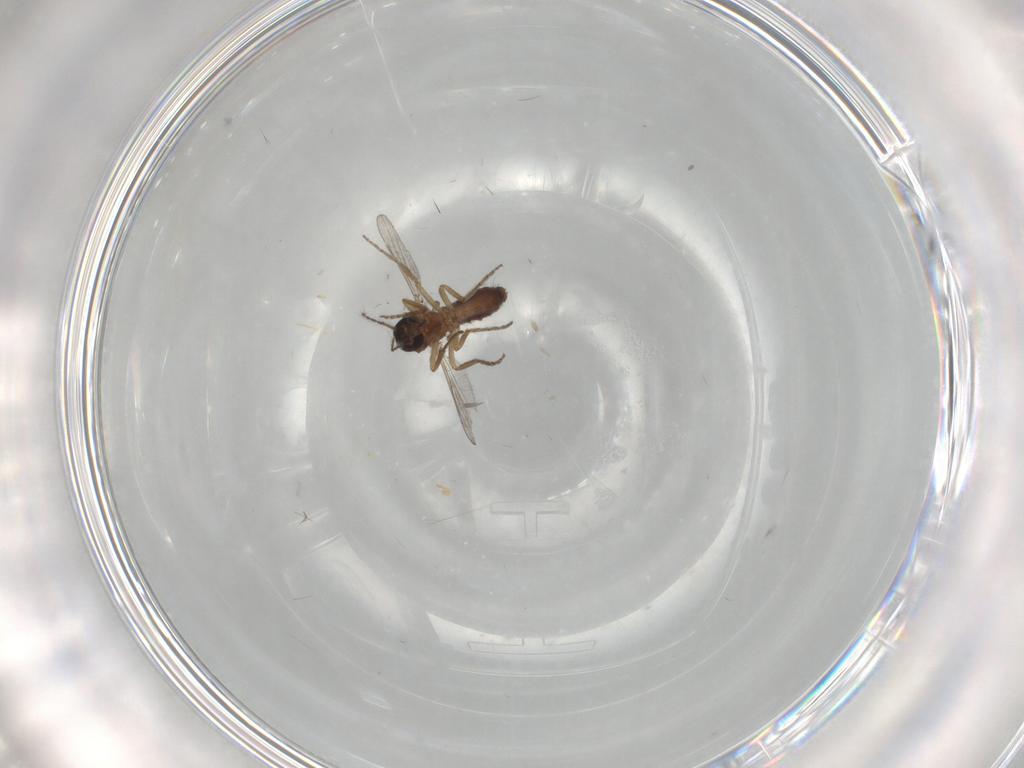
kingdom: Animalia
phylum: Arthropoda
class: Insecta
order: Diptera
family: Ceratopogonidae
